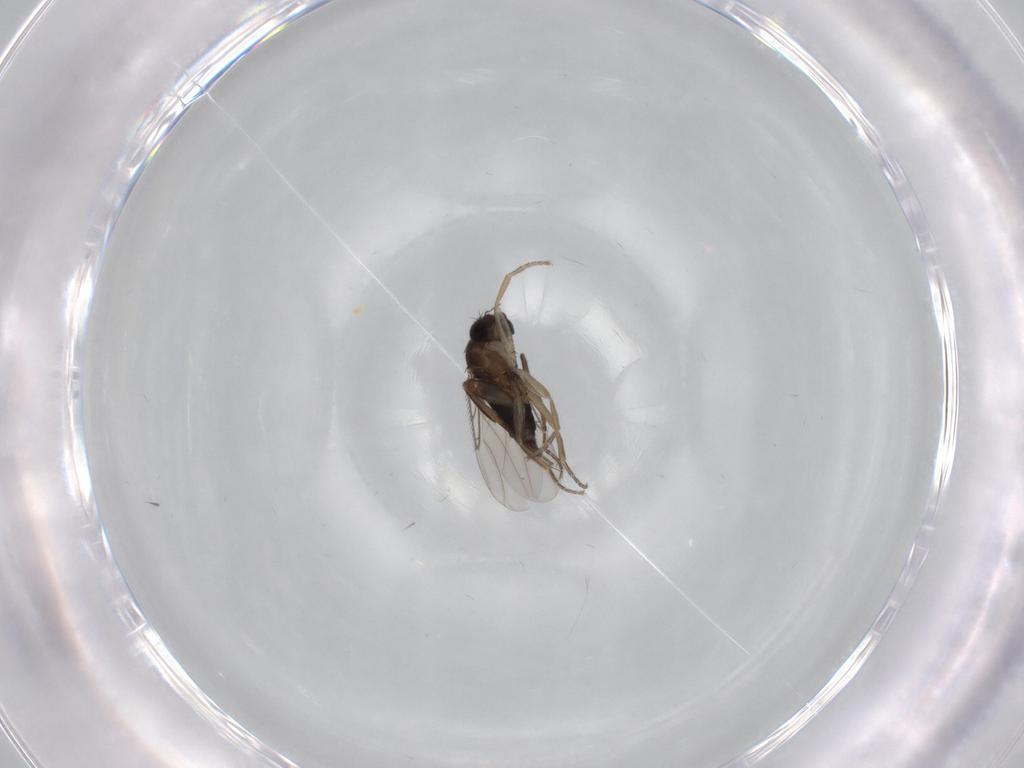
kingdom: Animalia
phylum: Arthropoda
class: Insecta
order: Diptera
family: Phoridae
